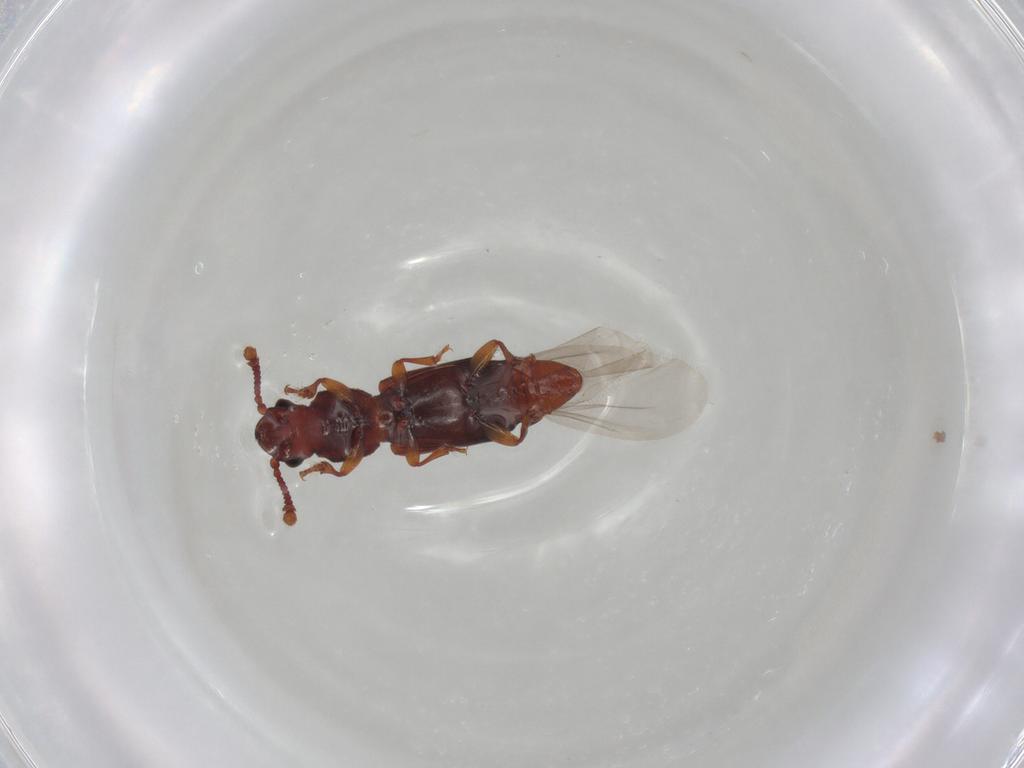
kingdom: Animalia
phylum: Arthropoda
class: Insecta
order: Coleoptera
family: Monotomidae
